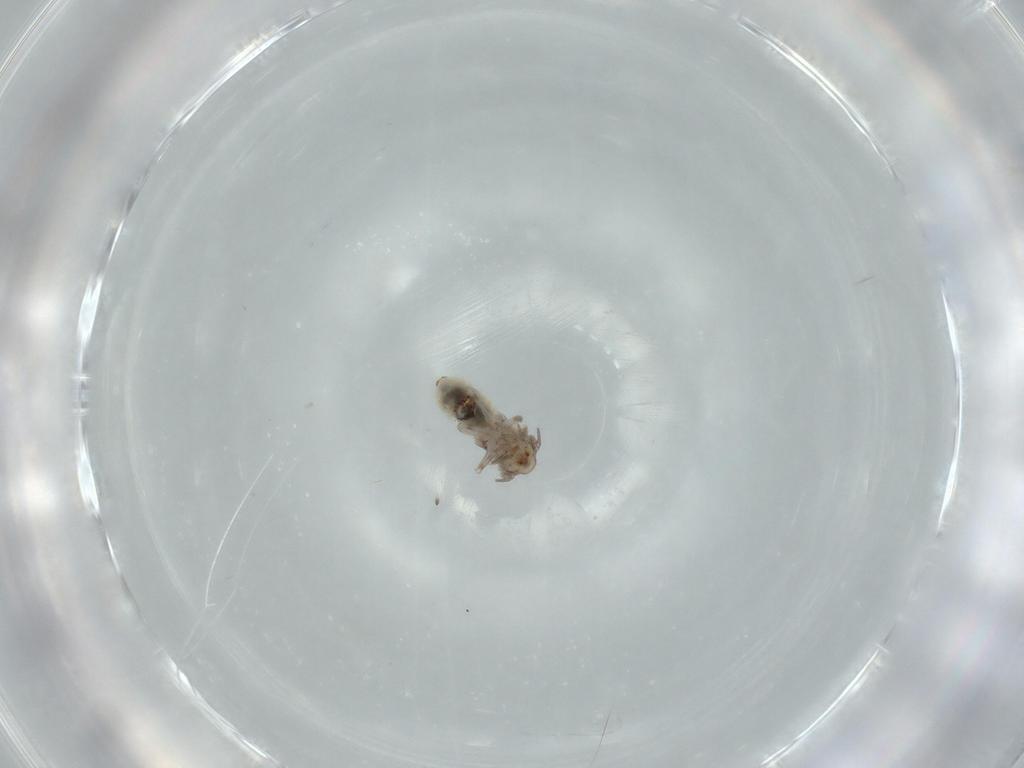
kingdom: Animalia
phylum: Arthropoda
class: Insecta
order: Psocodea
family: Lepidopsocidae
